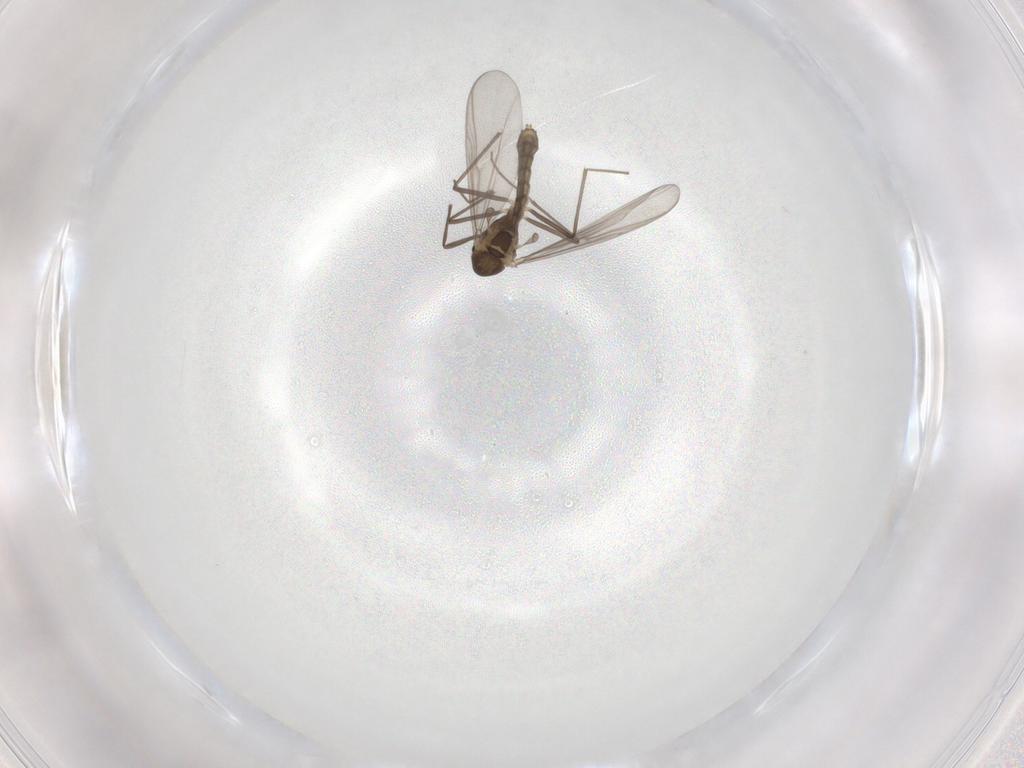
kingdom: Animalia
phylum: Arthropoda
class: Insecta
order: Diptera
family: Chironomidae
